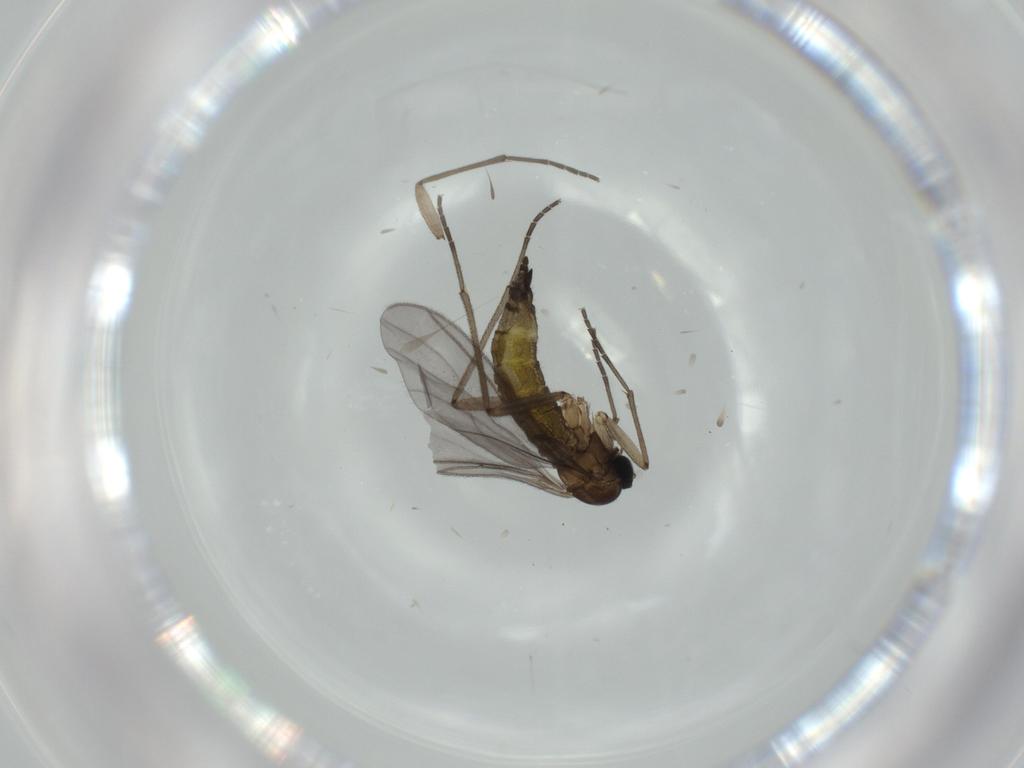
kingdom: Animalia
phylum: Arthropoda
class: Insecta
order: Diptera
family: Sciaridae
